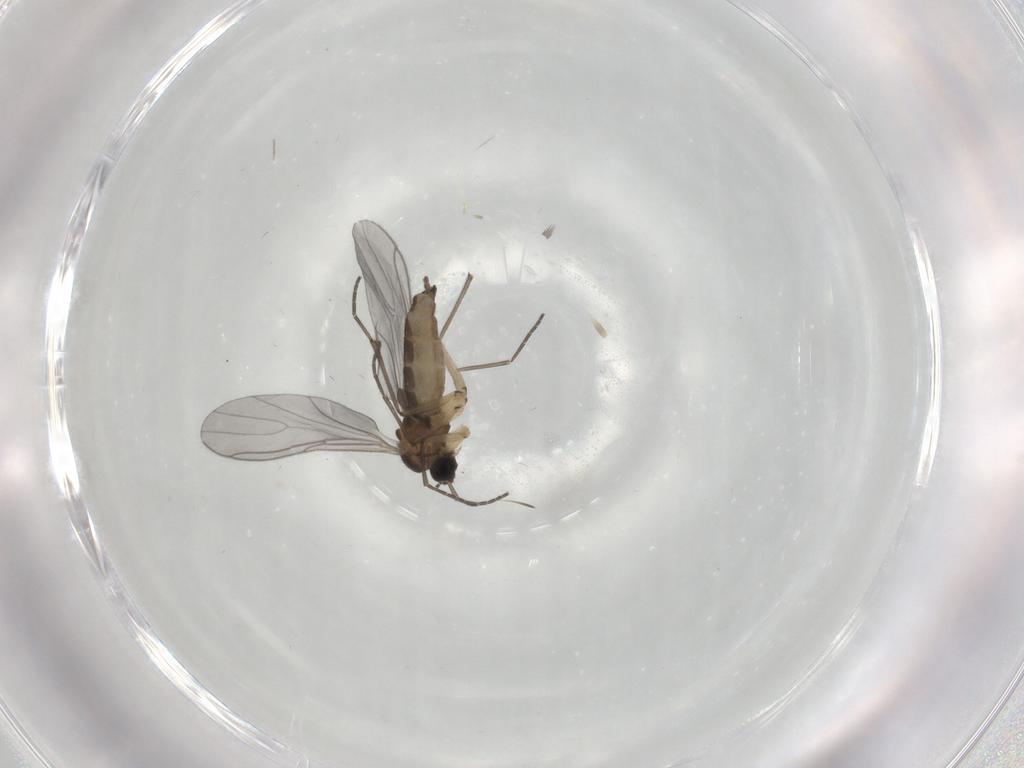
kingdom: Animalia
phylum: Arthropoda
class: Insecta
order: Diptera
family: Sciaridae
